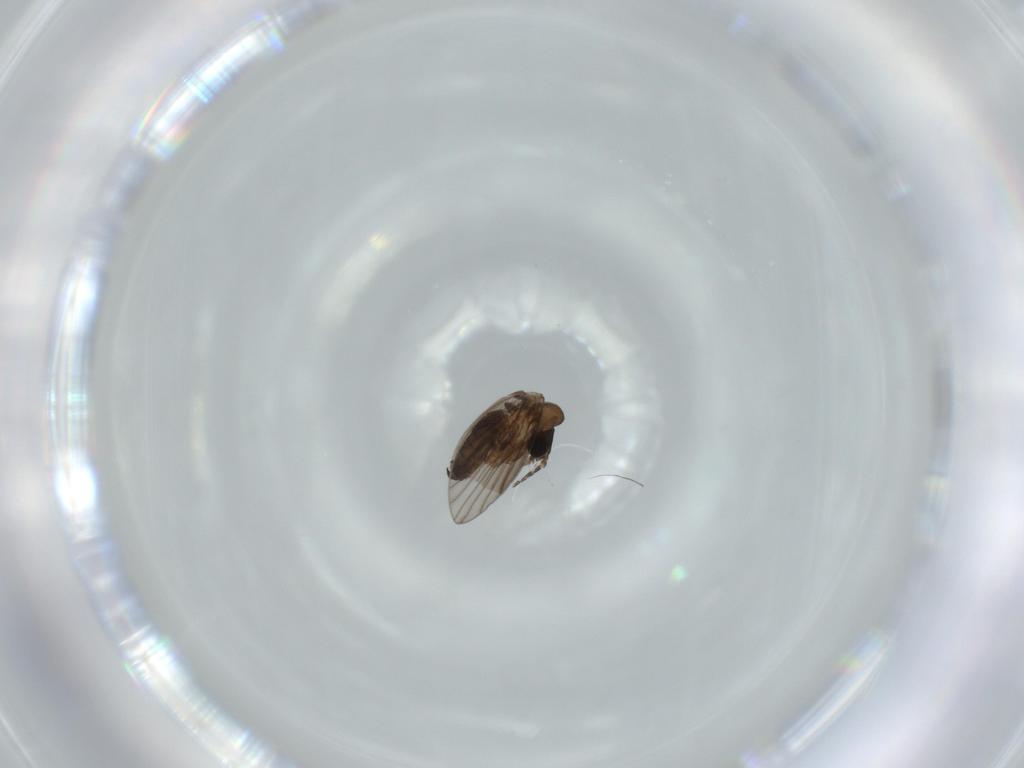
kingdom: Animalia
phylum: Arthropoda
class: Insecta
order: Diptera
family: Psychodidae
